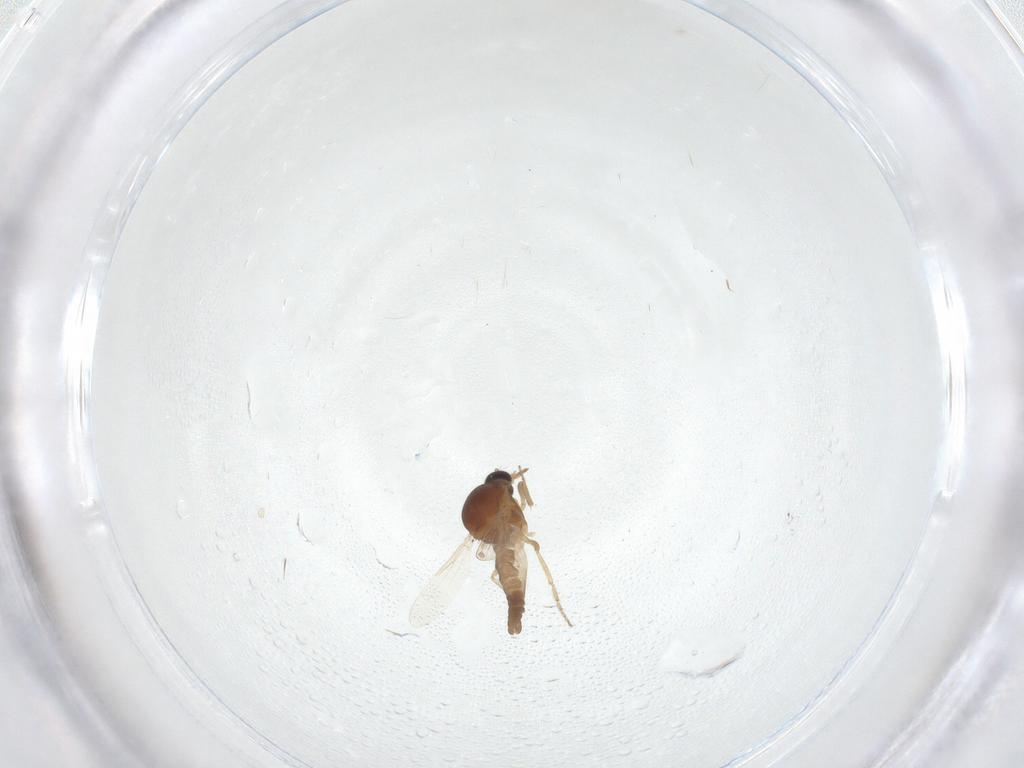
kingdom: Animalia
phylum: Arthropoda
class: Insecta
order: Diptera
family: Ceratopogonidae
